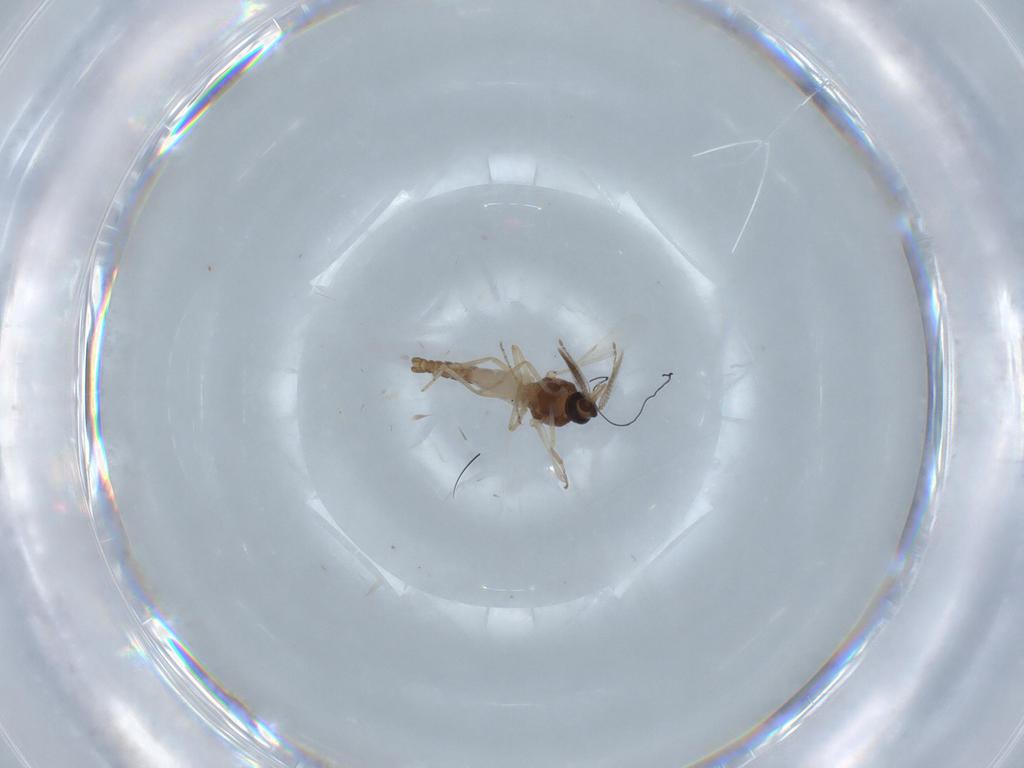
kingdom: Animalia
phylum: Arthropoda
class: Insecta
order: Diptera
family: Ceratopogonidae
